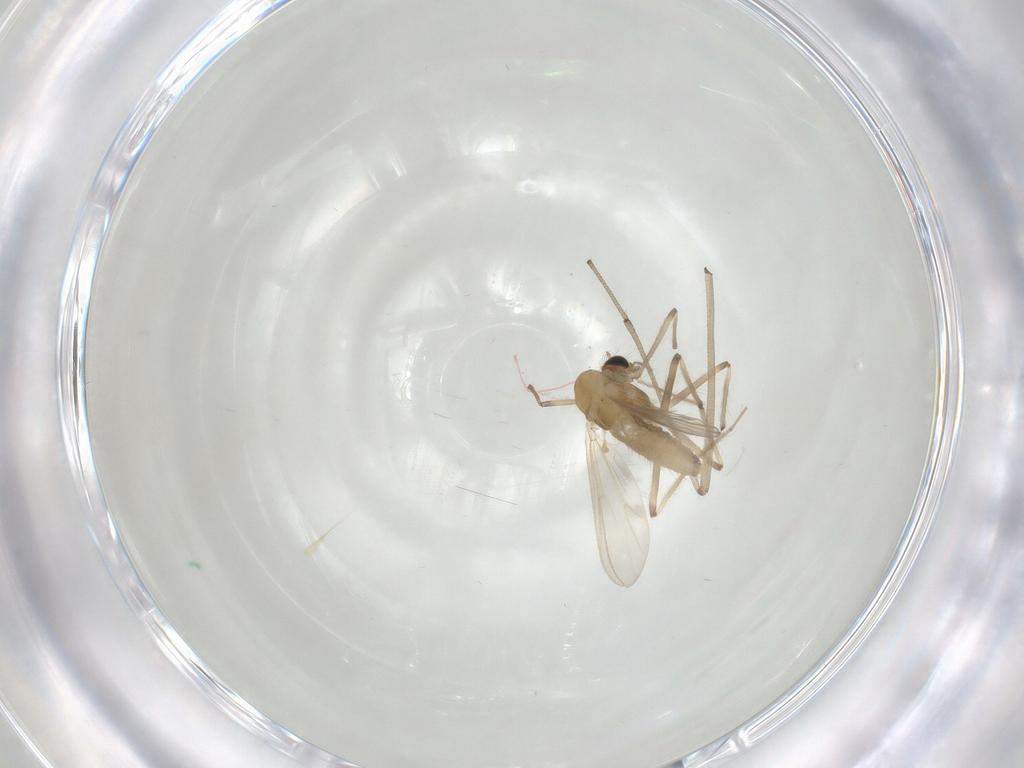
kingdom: Animalia
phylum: Arthropoda
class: Insecta
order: Diptera
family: Chironomidae
